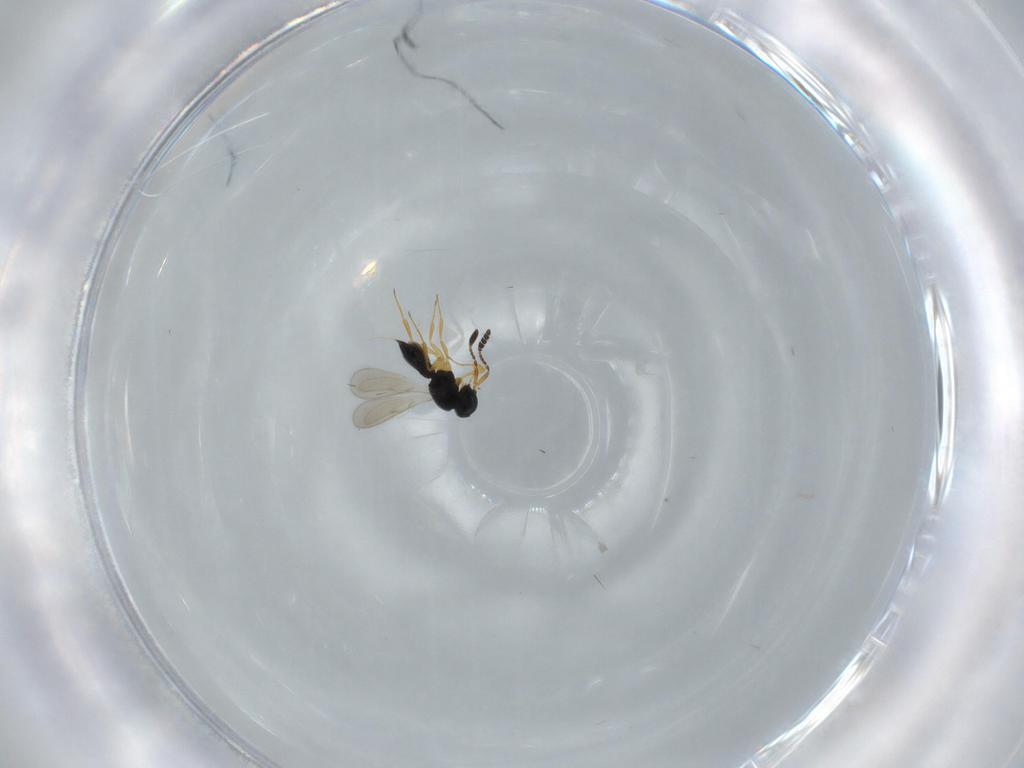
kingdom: Animalia
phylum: Arthropoda
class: Insecta
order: Hymenoptera
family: Scelionidae
